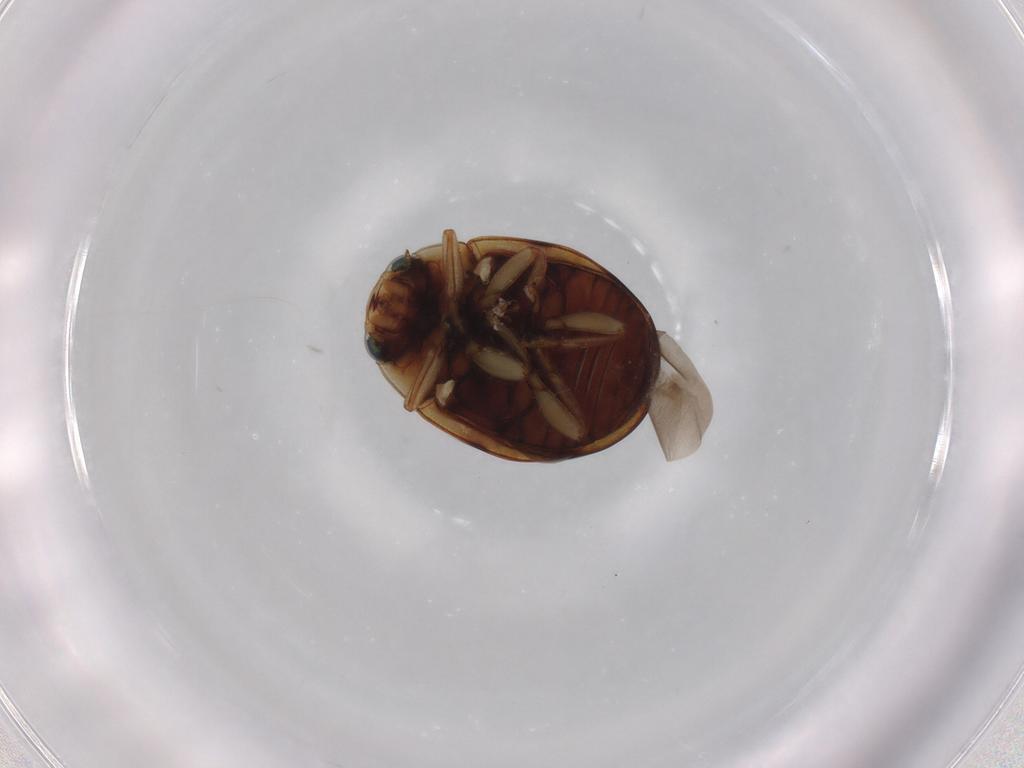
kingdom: Animalia
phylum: Arthropoda
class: Insecta
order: Coleoptera
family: Coccinellidae
